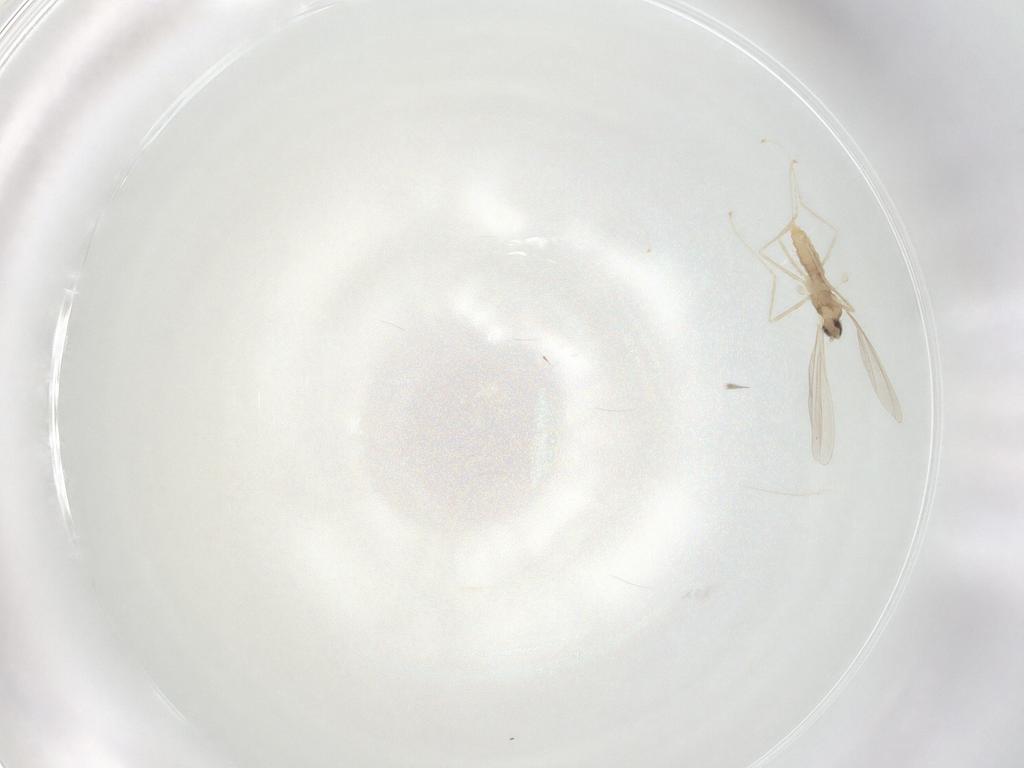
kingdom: Animalia
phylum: Arthropoda
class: Insecta
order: Diptera
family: Cecidomyiidae
